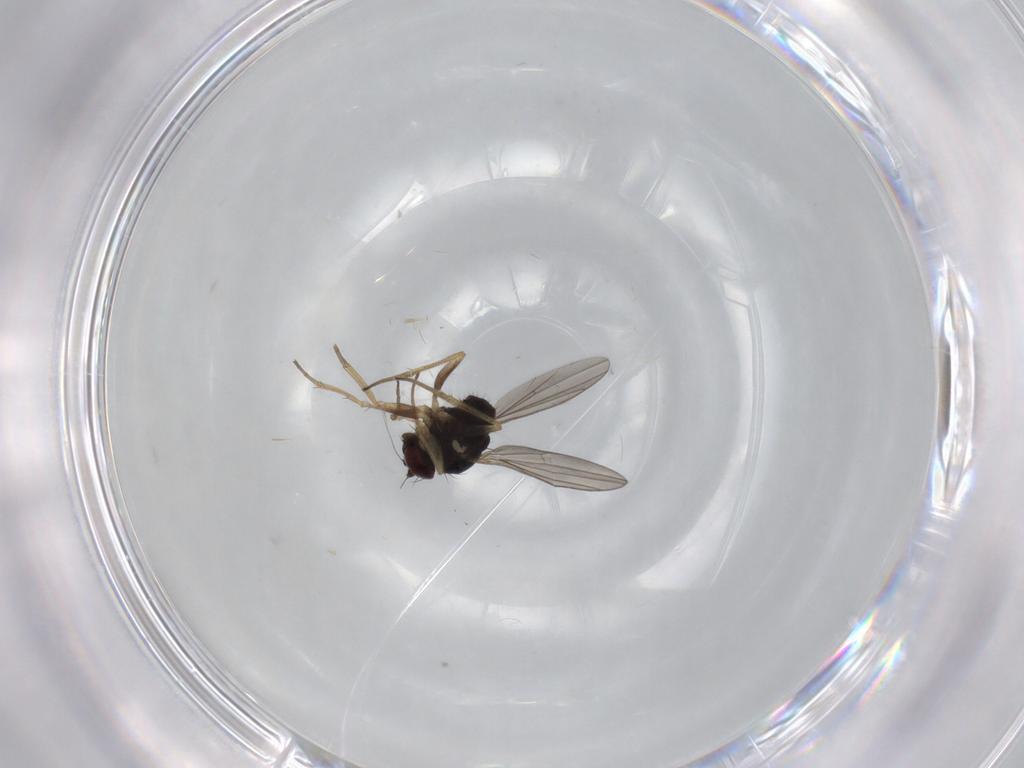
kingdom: Animalia
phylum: Arthropoda
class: Insecta
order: Diptera
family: Dolichopodidae
